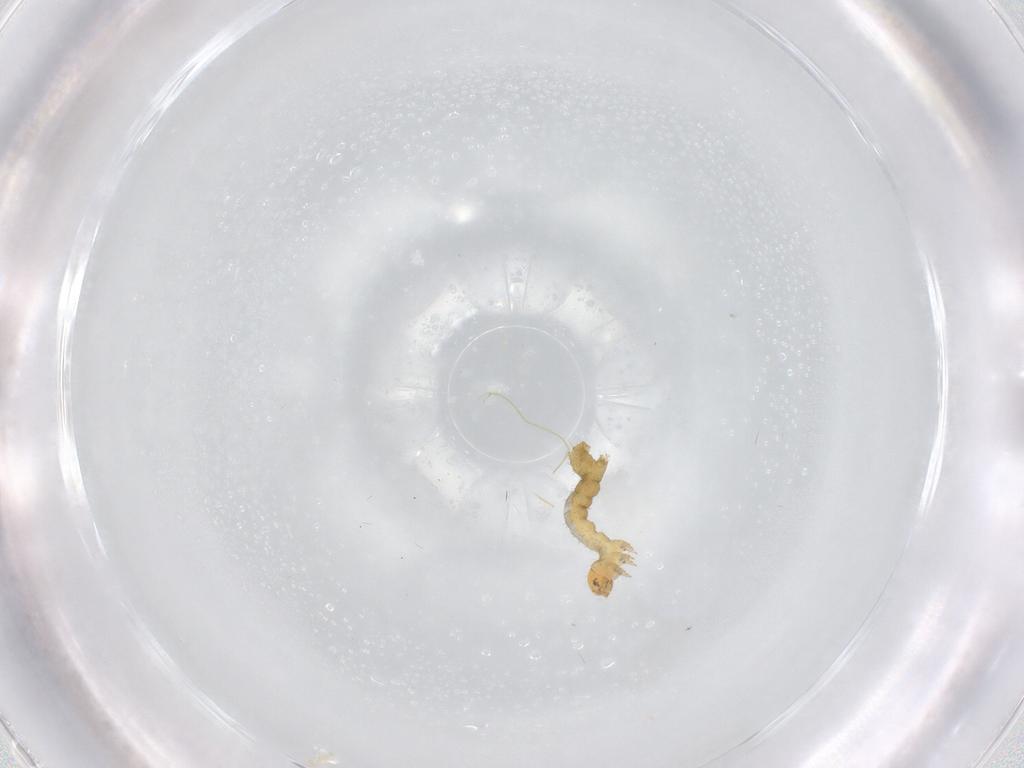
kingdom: Animalia
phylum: Arthropoda
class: Insecta
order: Lepidoptera
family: Geometridae
